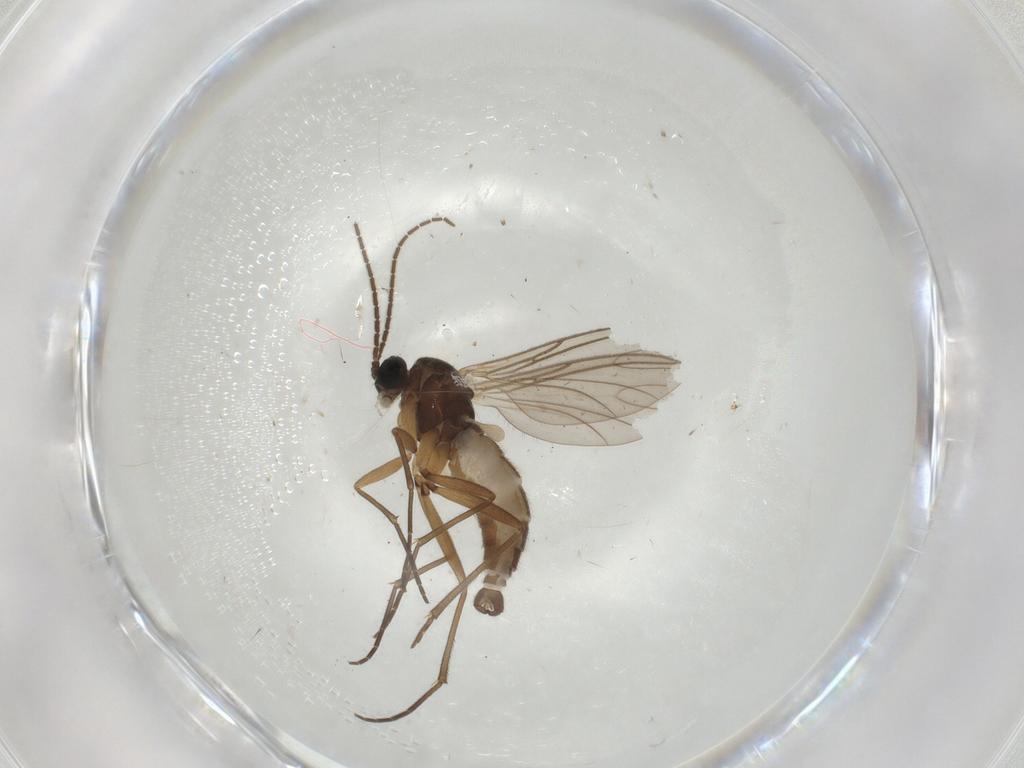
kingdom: Animalia
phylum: Arthropoda
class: Insecta
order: Diptera
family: Sciaridae
